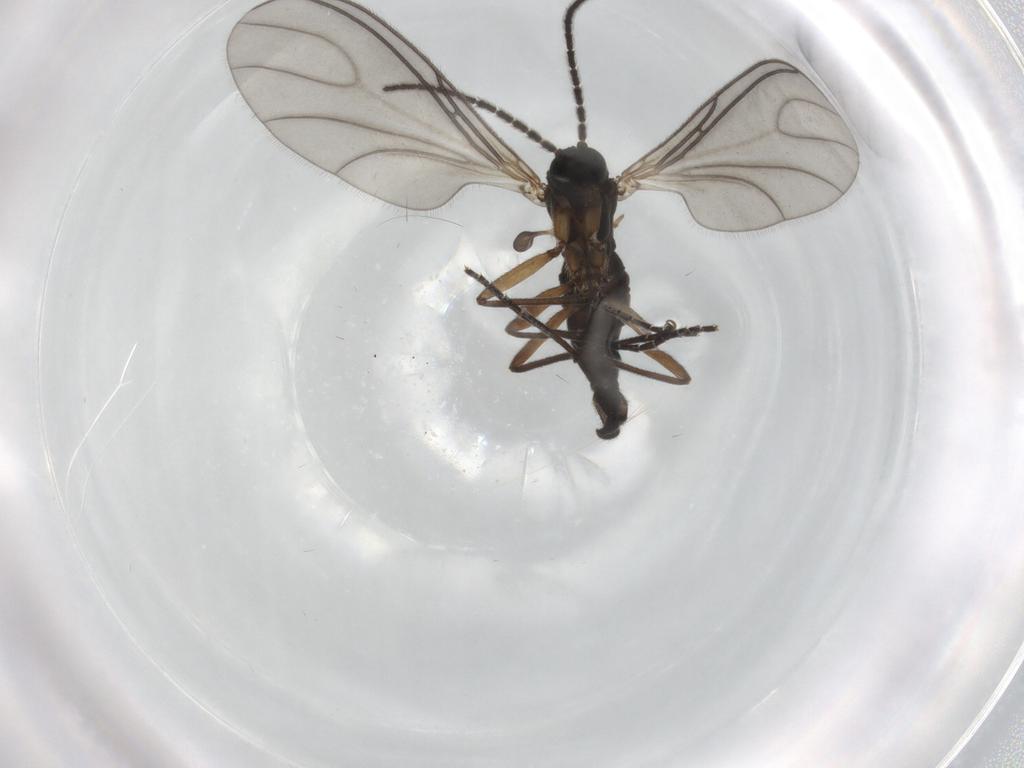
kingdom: Animalia
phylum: Arthropoda
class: Insecta
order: Diptera
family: Sciaridae
